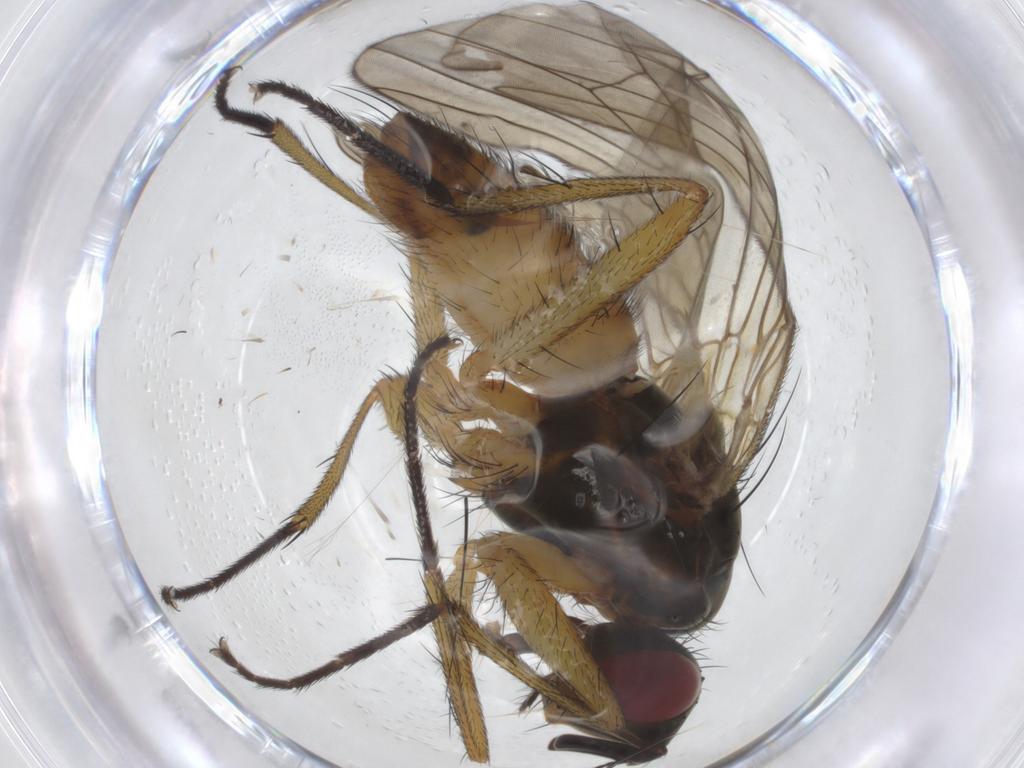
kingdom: Animalia
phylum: Arthropoda
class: Insecta
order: Diptera
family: Muscidae
